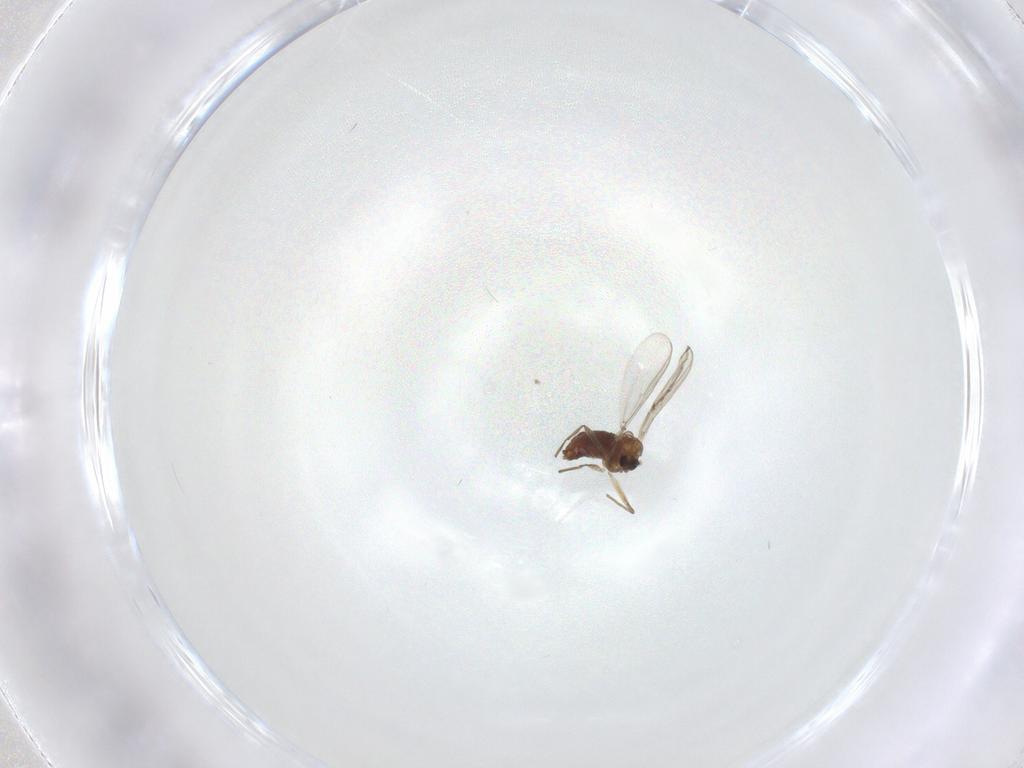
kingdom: Animalia
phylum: Arthropoda
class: Insecta
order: Diptera
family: Chironomidae
